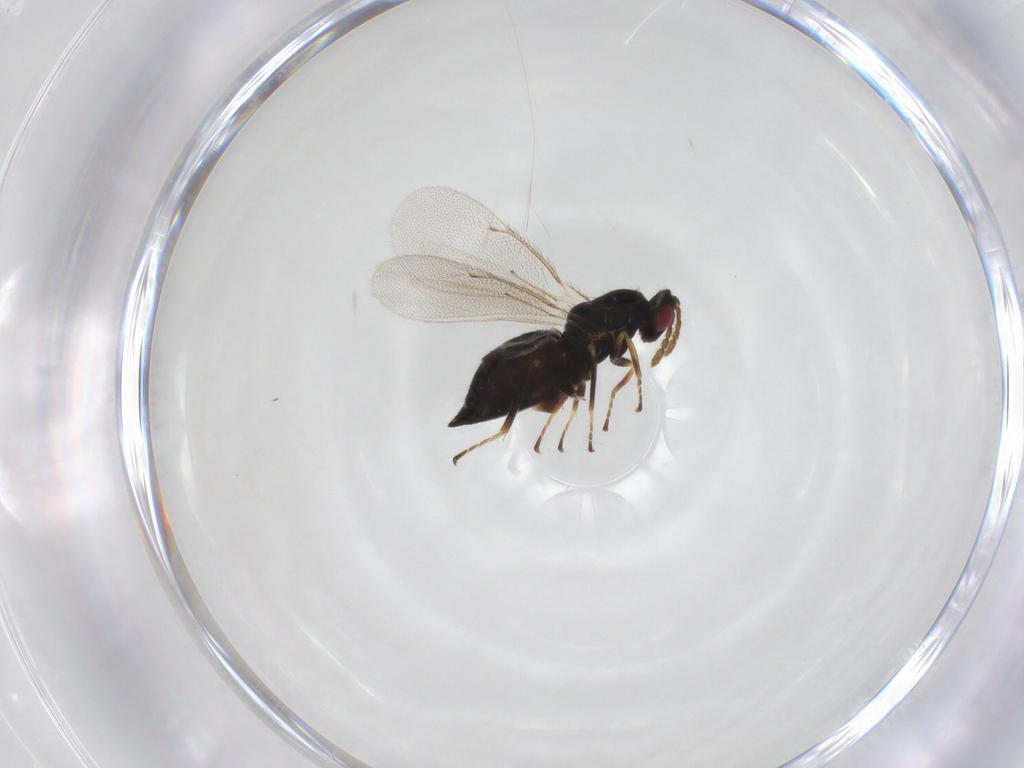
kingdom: Animalia
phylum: Arthropoda
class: Insecta
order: Hymenoptera
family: Eulophidae
